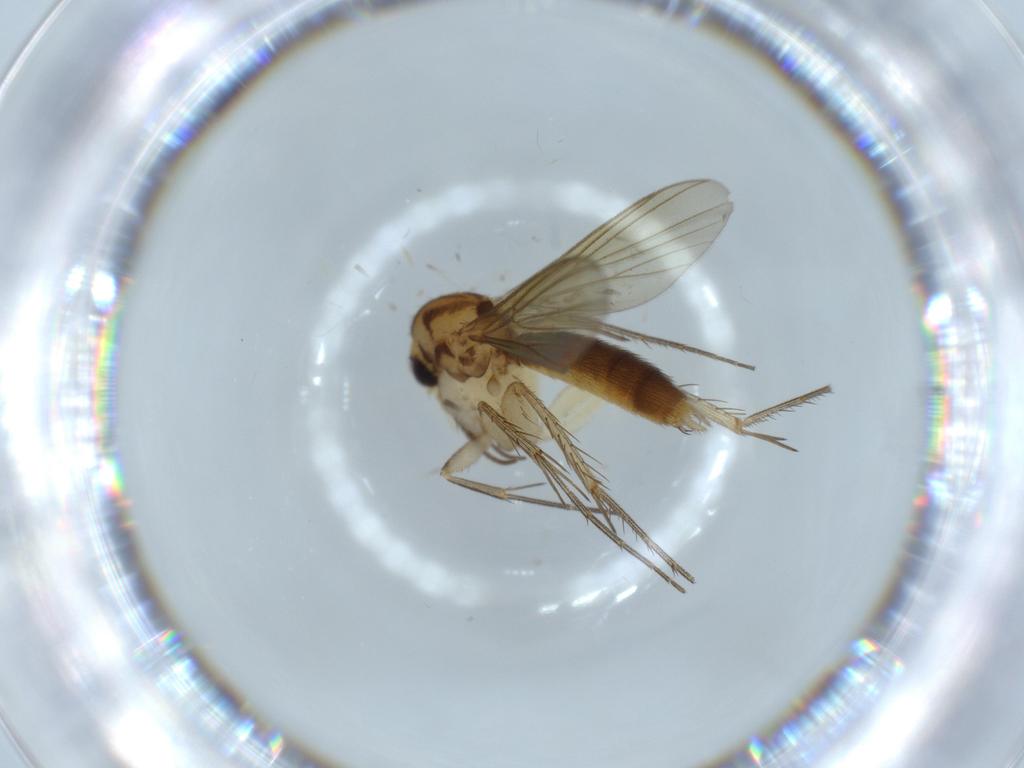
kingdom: Animalia
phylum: Arthropoda
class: Insecta
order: Diptera
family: Mycetophilidae
